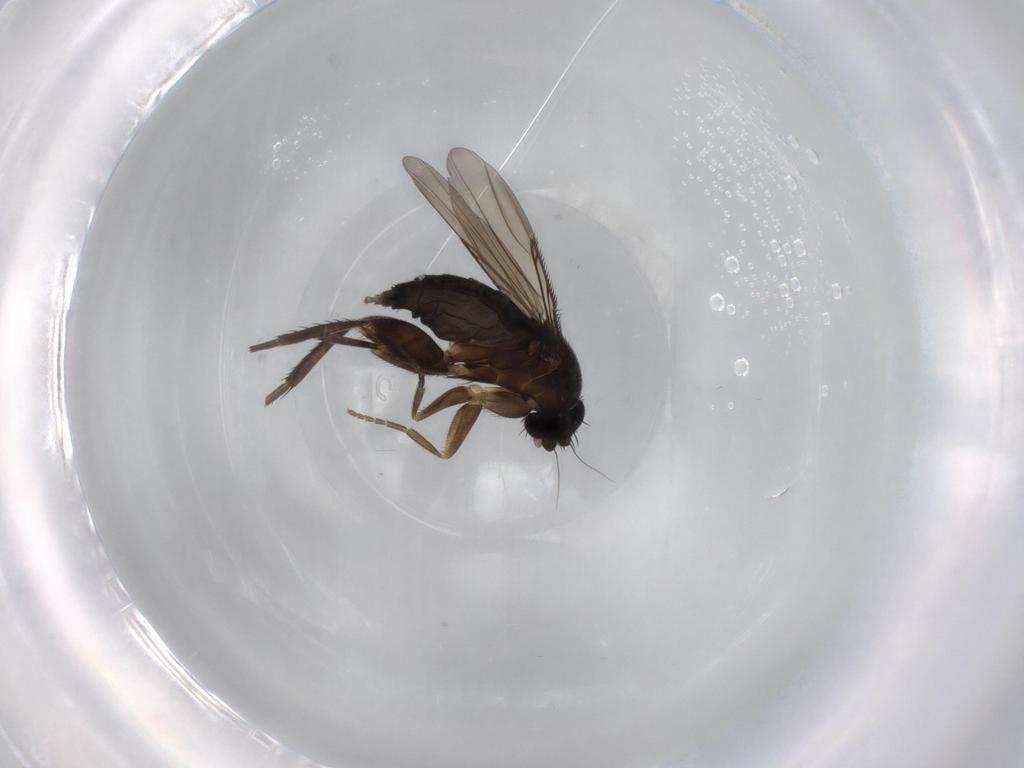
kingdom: Animalia
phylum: Arthropoda
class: Insecta
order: Diptera
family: Phoridae
